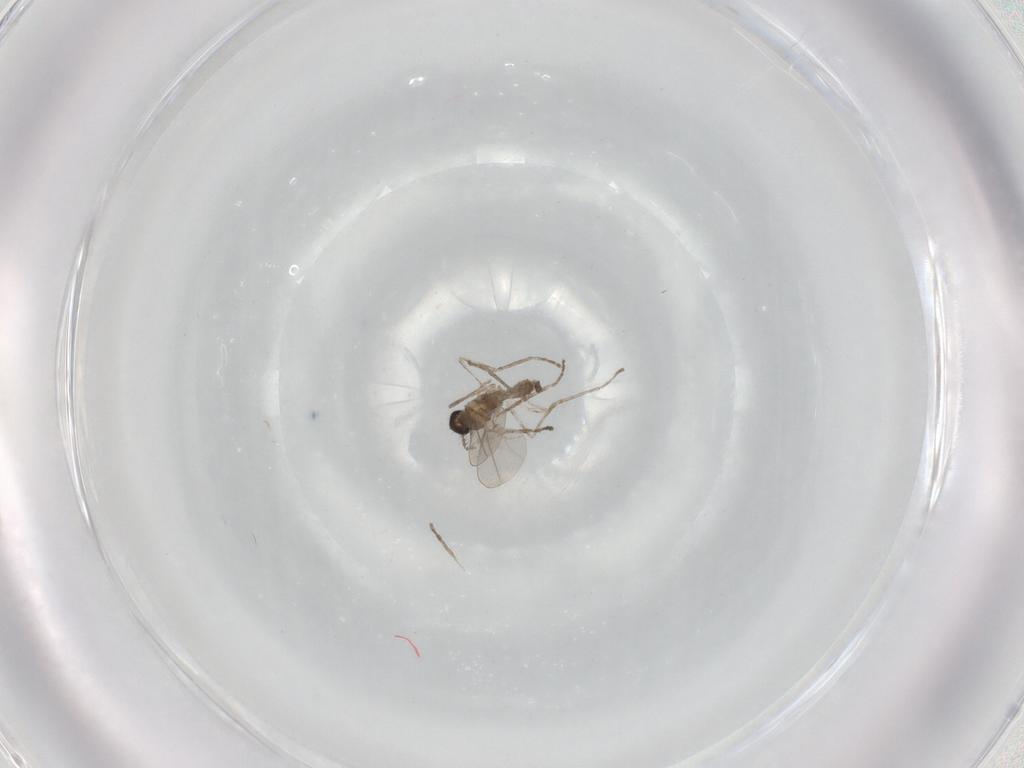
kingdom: Animalia
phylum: Arthropoda
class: Insecta
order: Diptera
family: Cecidomyiidae
